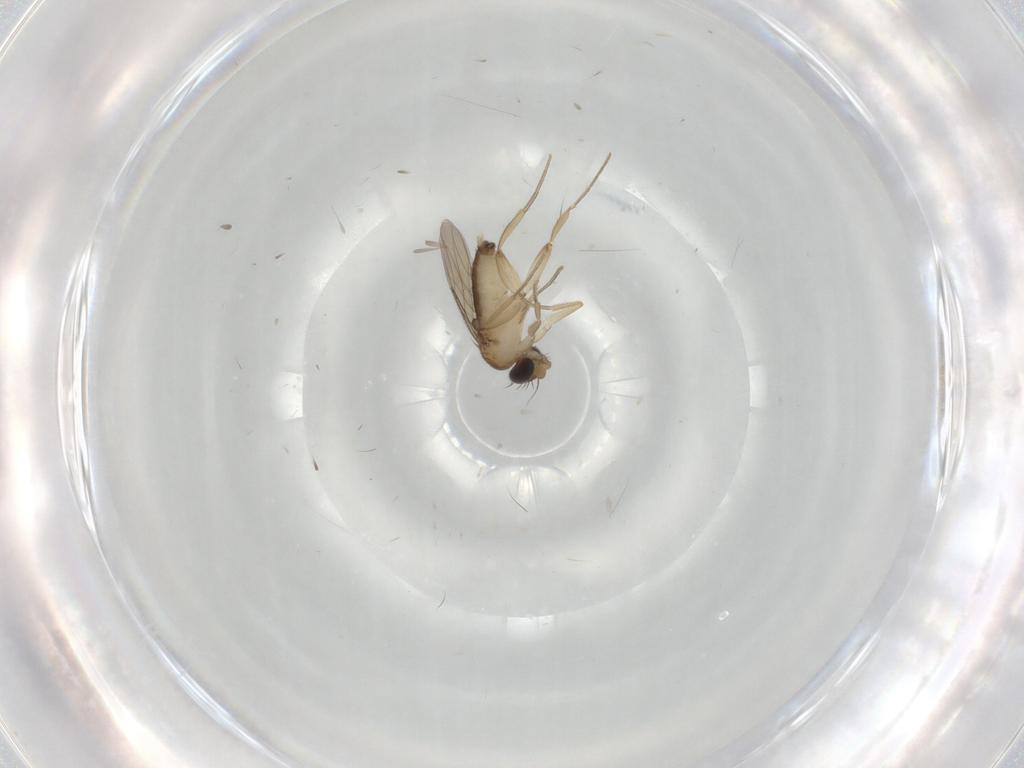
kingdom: Animalia
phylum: Arthropoda
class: Insecta
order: Diptera
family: Phoridae
